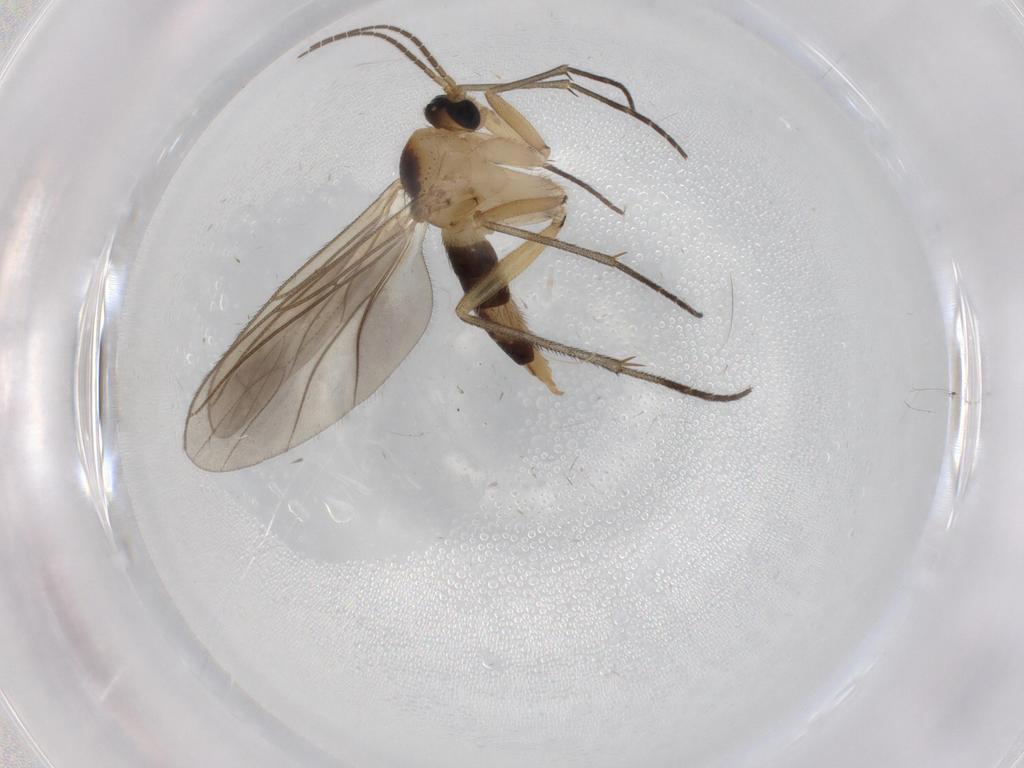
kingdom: Animalia
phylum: Arthropoda
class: Insecta
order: Diptera
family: Sciaridae
